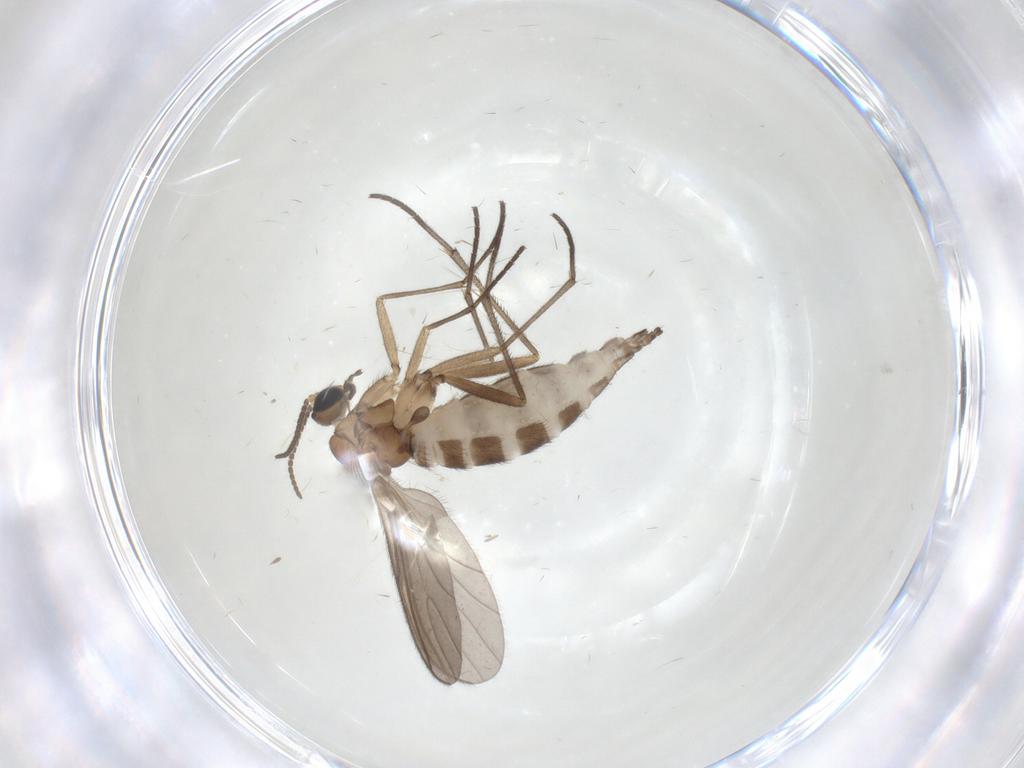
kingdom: Animalia
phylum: Arthropoda
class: Insecta
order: Diptera
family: Sciaridae
